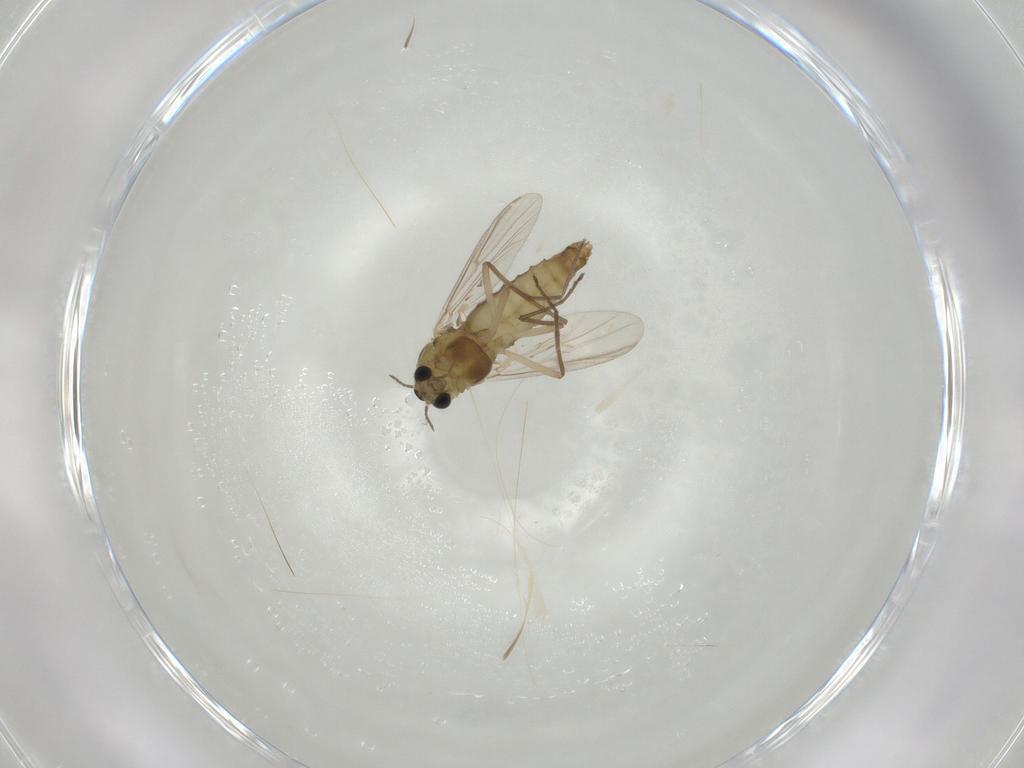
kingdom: Animalia
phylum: Arthropoda
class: Insecta
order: Diptera
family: Chironomidae
